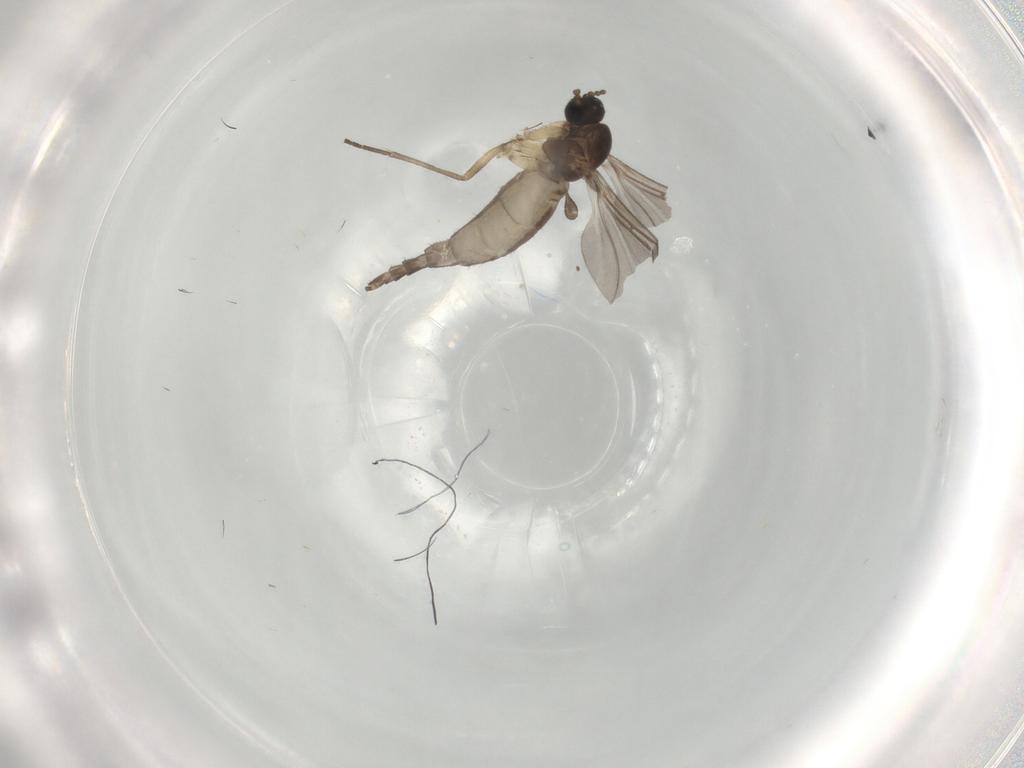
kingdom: Animalia
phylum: Arthropoda
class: Insecta
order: Diptera
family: Sciaridae
